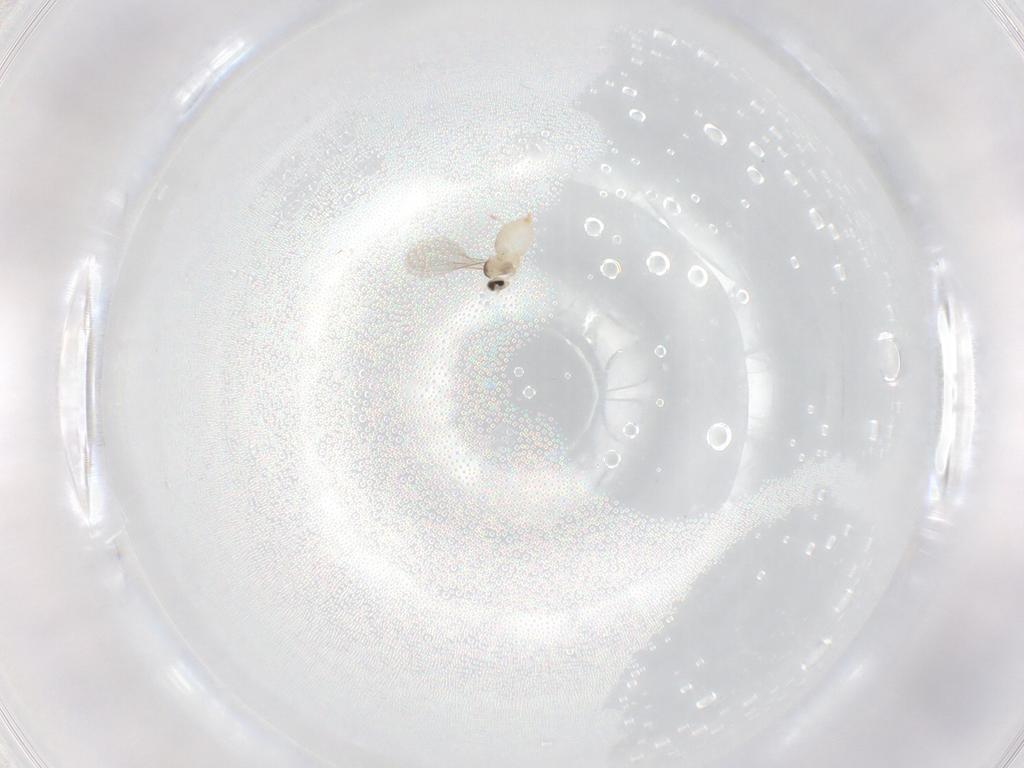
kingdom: Animalia
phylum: Arthropoda
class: Insecta
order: Diptera
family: Cecidomyiidae
